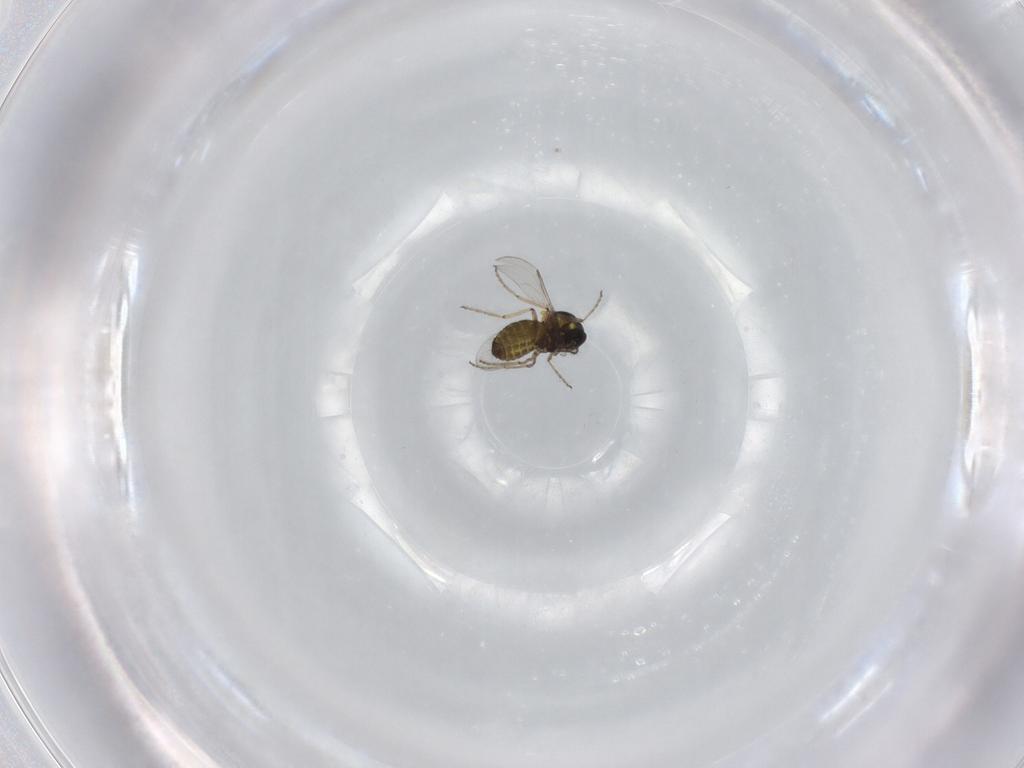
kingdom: Animalia
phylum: Arthropoda
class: Insecta
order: Diptera
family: Ceratopogonidae
